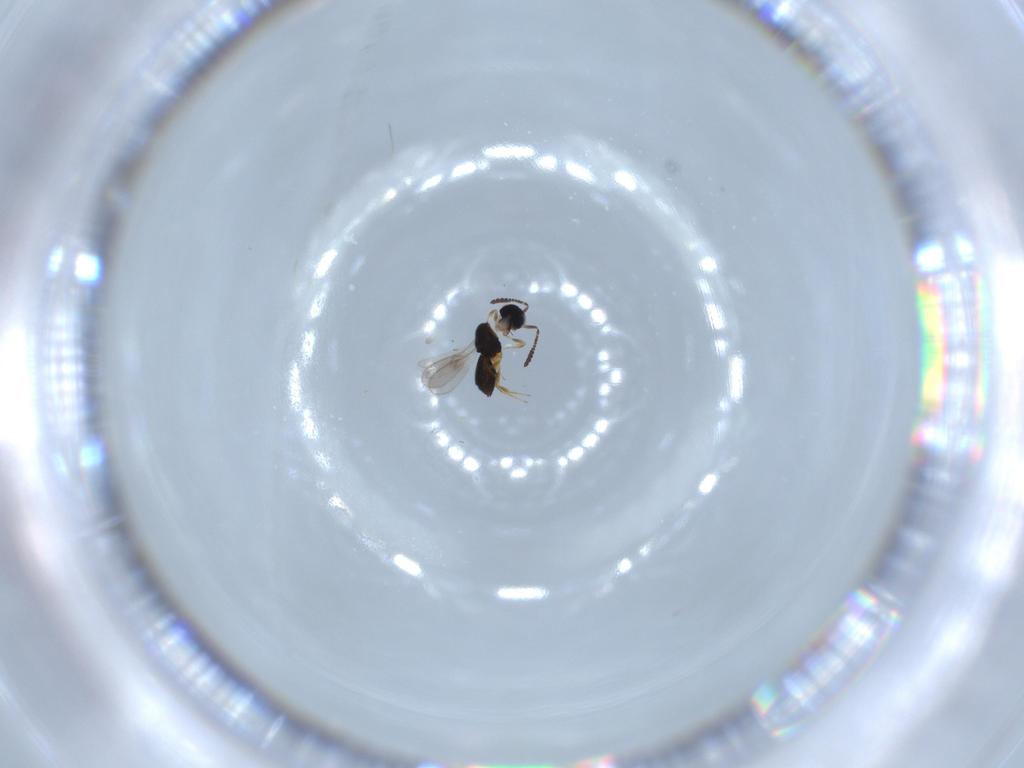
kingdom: Animalia
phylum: Arthropoda
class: Insecta
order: Hymenoptera
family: Scelionidae
